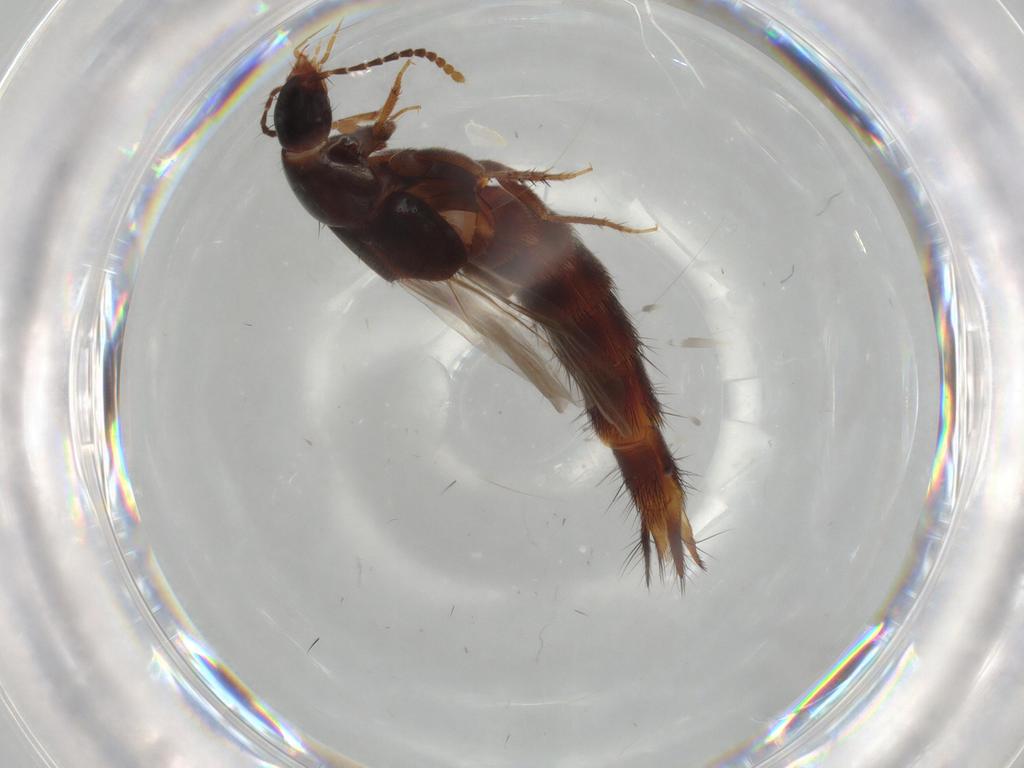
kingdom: Animalia
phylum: Arthropoda
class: Insecta
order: Coleoptera
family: Staphylinidae
